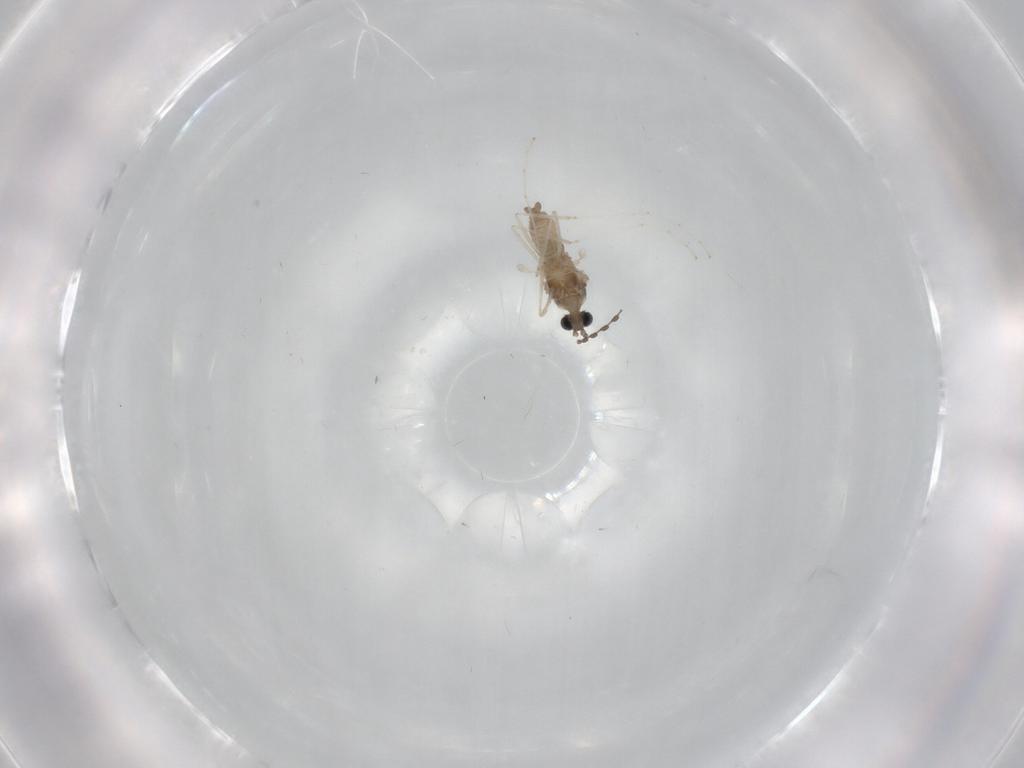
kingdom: Animalia
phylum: Arthropoda
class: Insecta
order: Diptera
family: Cecidomyiidae
